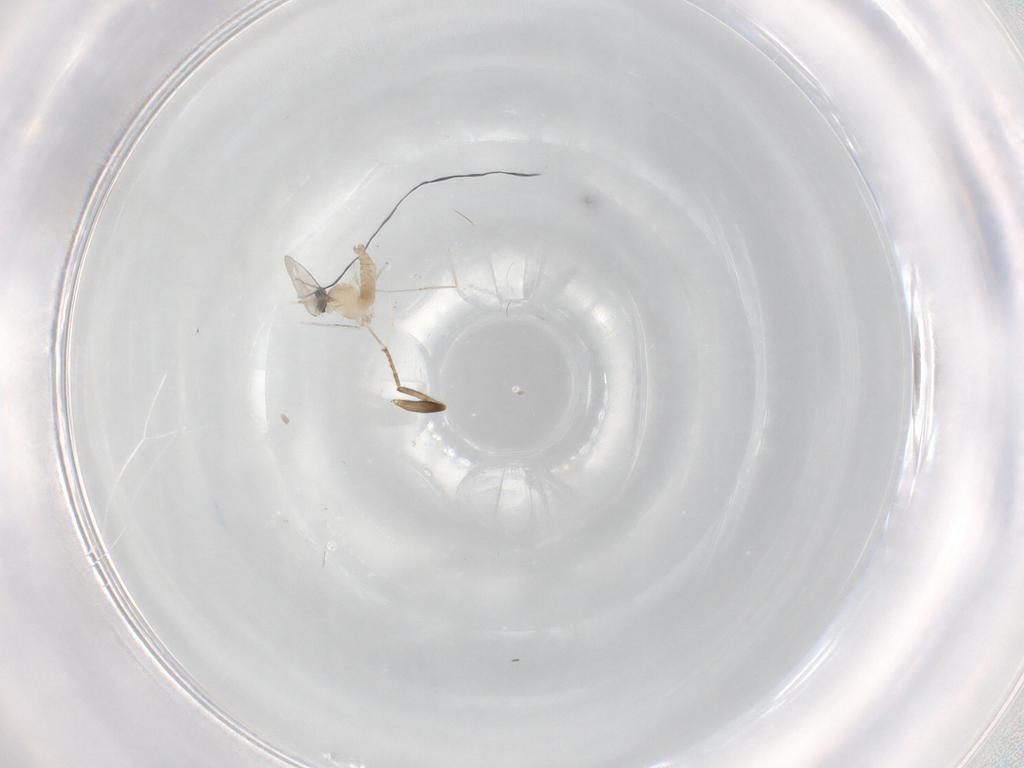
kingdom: Animalia
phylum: Arthropoda
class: Insecta
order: Diptera
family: Cecidomyiidae
